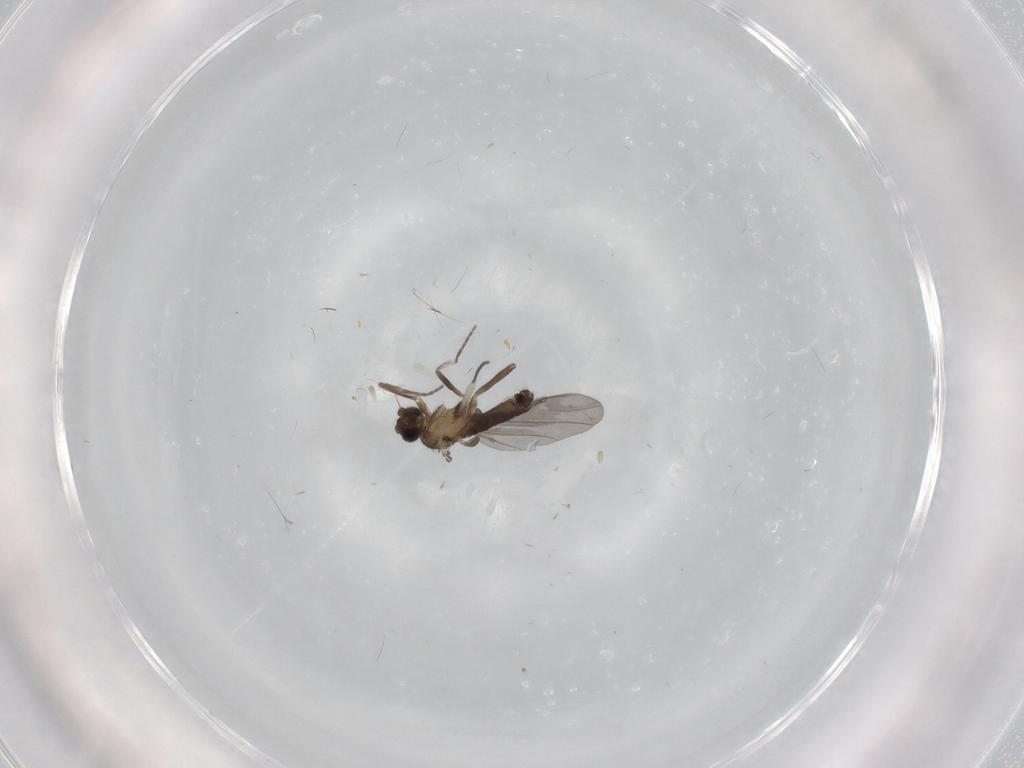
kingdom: Animalia
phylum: Arthropoda
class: Insecta
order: Diptera
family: Phoridae
